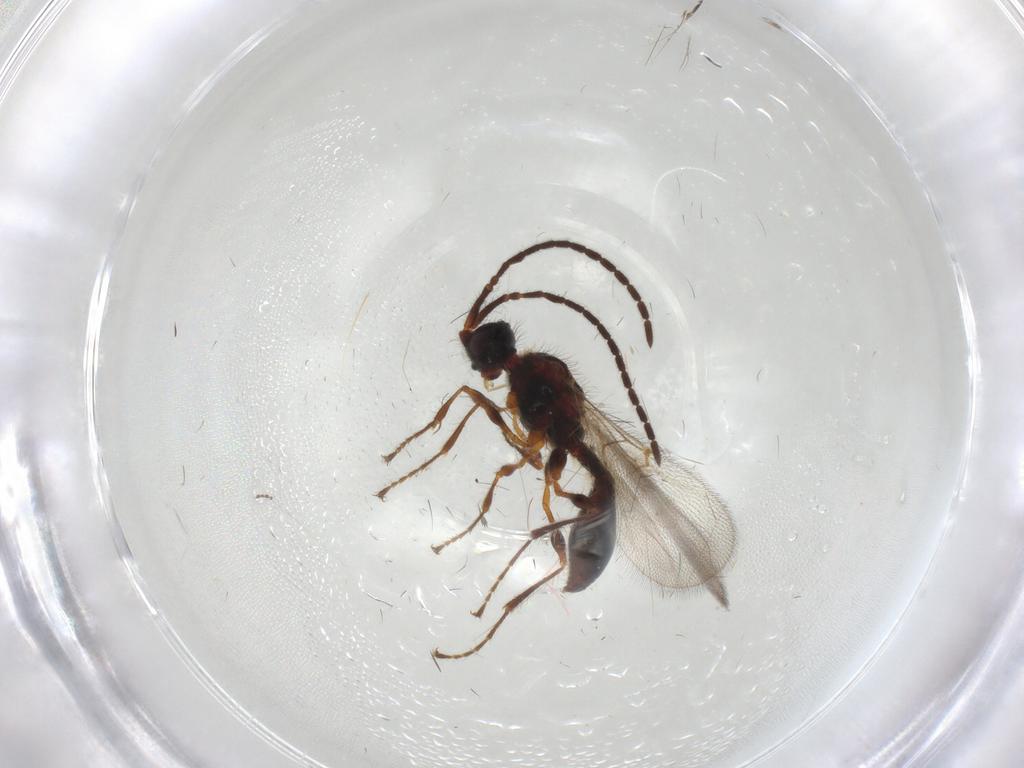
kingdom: Animalia
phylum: Arthropoda
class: Insecta
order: Hymenoptera
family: Diapriidae
